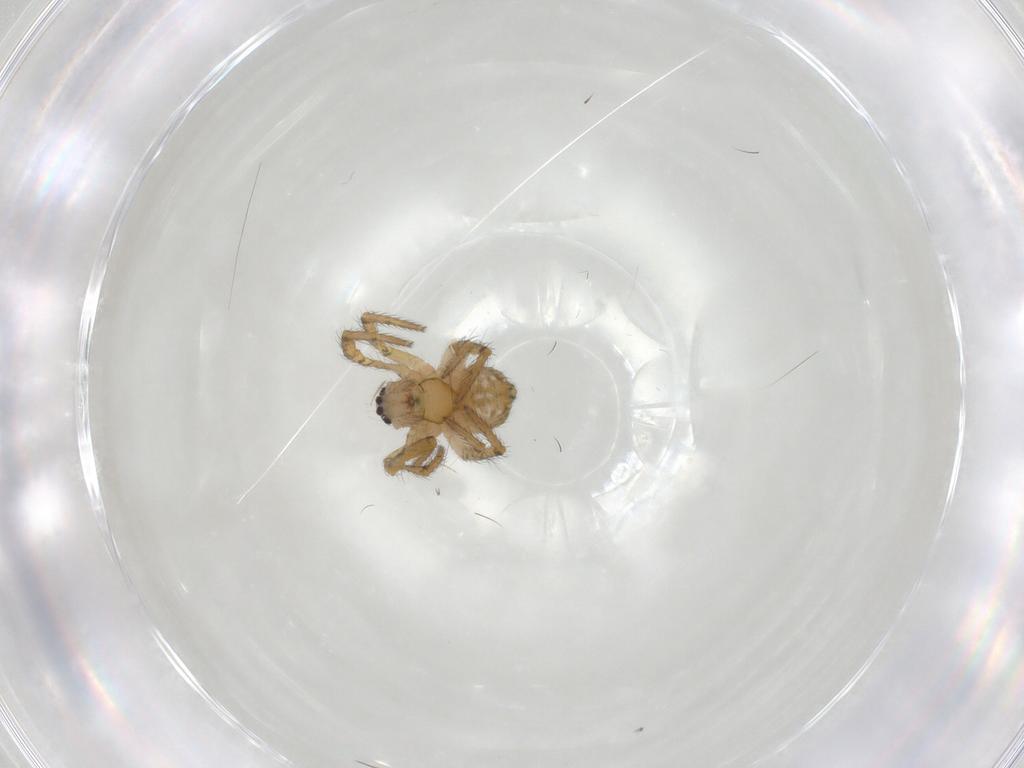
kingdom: Animalia
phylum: Arthropoda
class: Arachnida
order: Araneae
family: Araneidae
